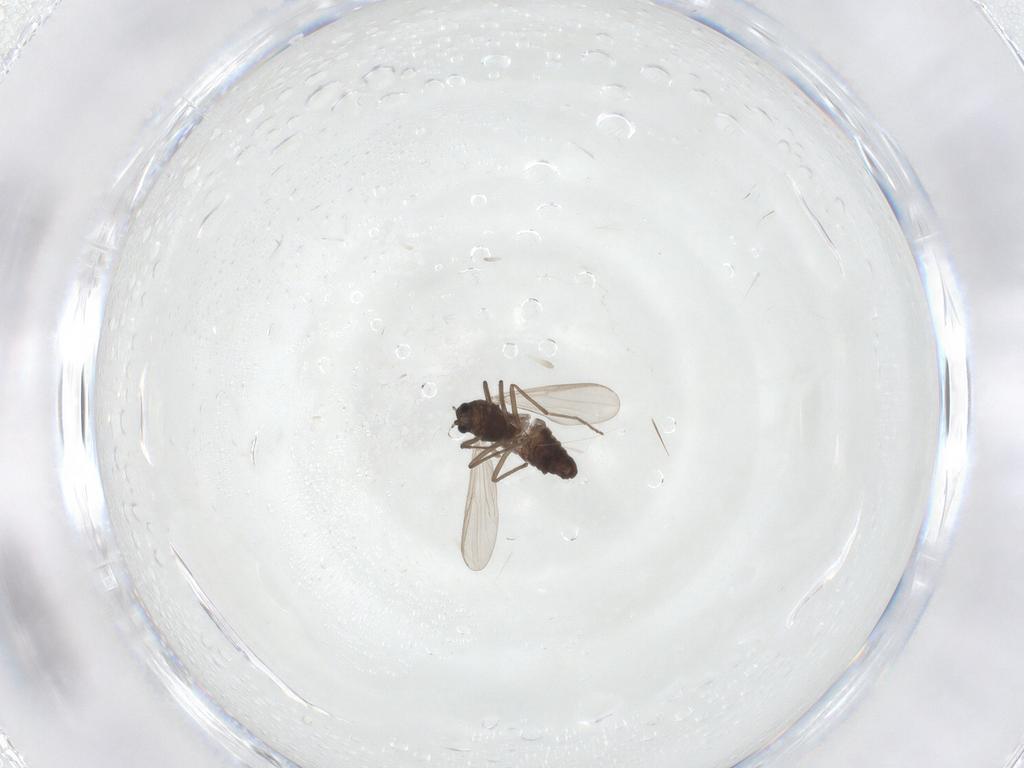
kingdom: Animalia
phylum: Arthropoda
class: Insecta
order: Diptera
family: Chironomidae
